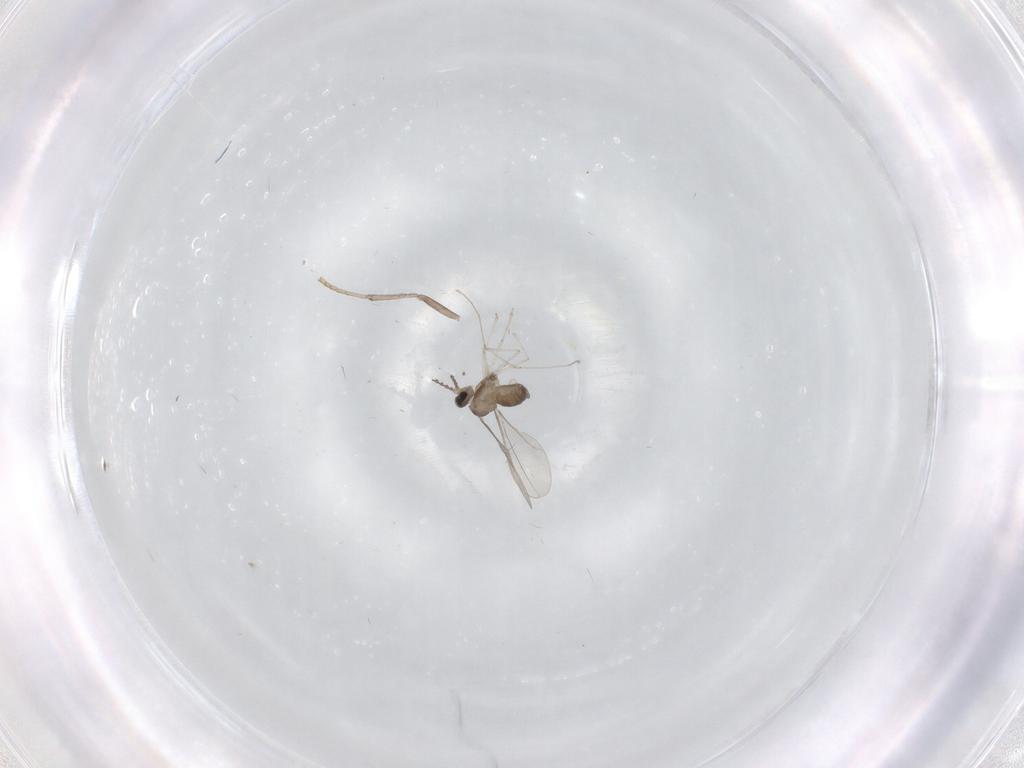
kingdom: Animalia
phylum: Arthropoda
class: Insecta
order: Diptera
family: Cecidomyiidae
